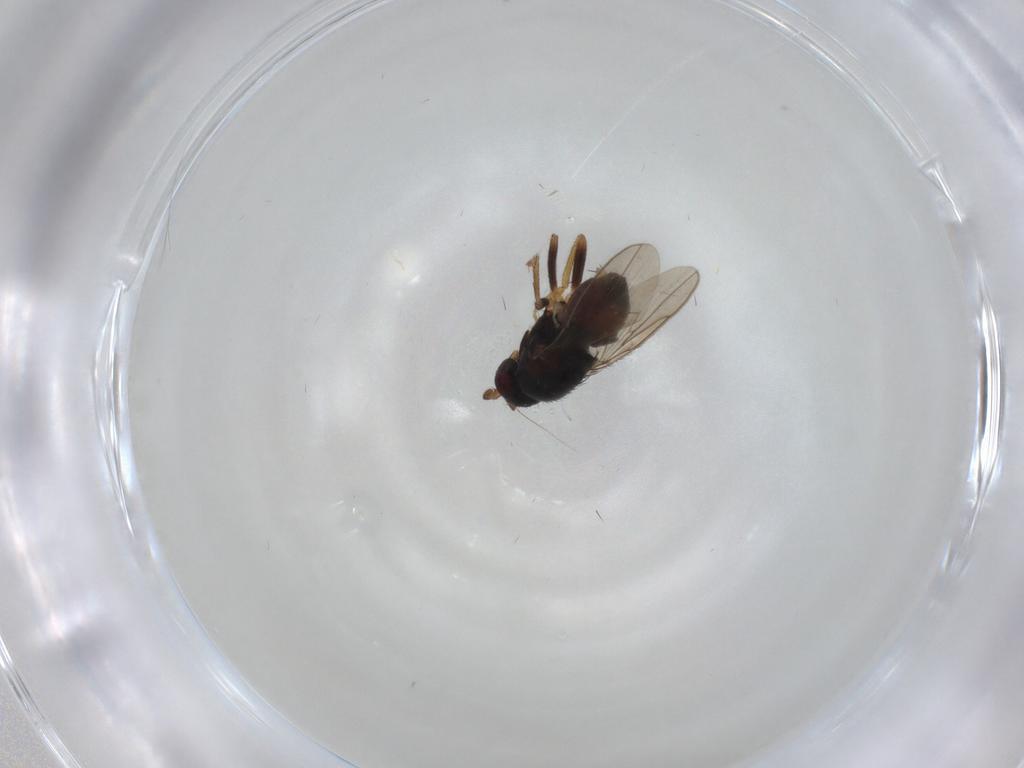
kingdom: Animalia
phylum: Arthropoda
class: Insecta
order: Diptera
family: Sphaeroceridae
